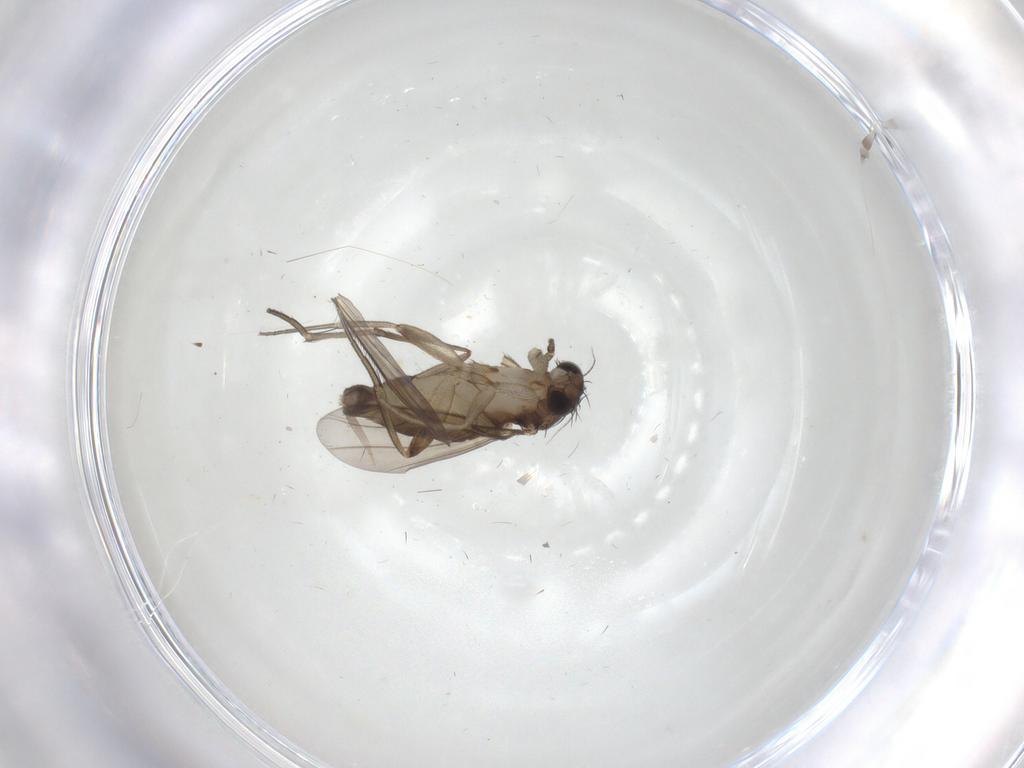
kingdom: Animalia
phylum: Arthropoda
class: Insecta
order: Diptera
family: Phoridae
